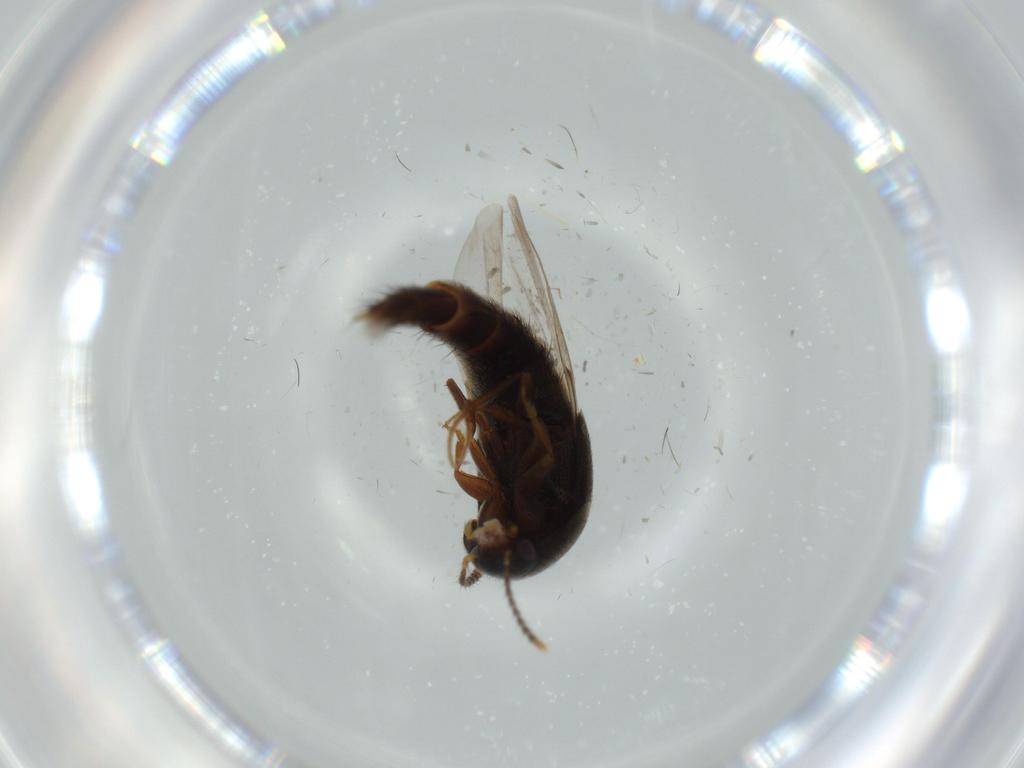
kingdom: Animalia
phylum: Arthropoda
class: Insecta
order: Coleoptera
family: Staphylinidae
